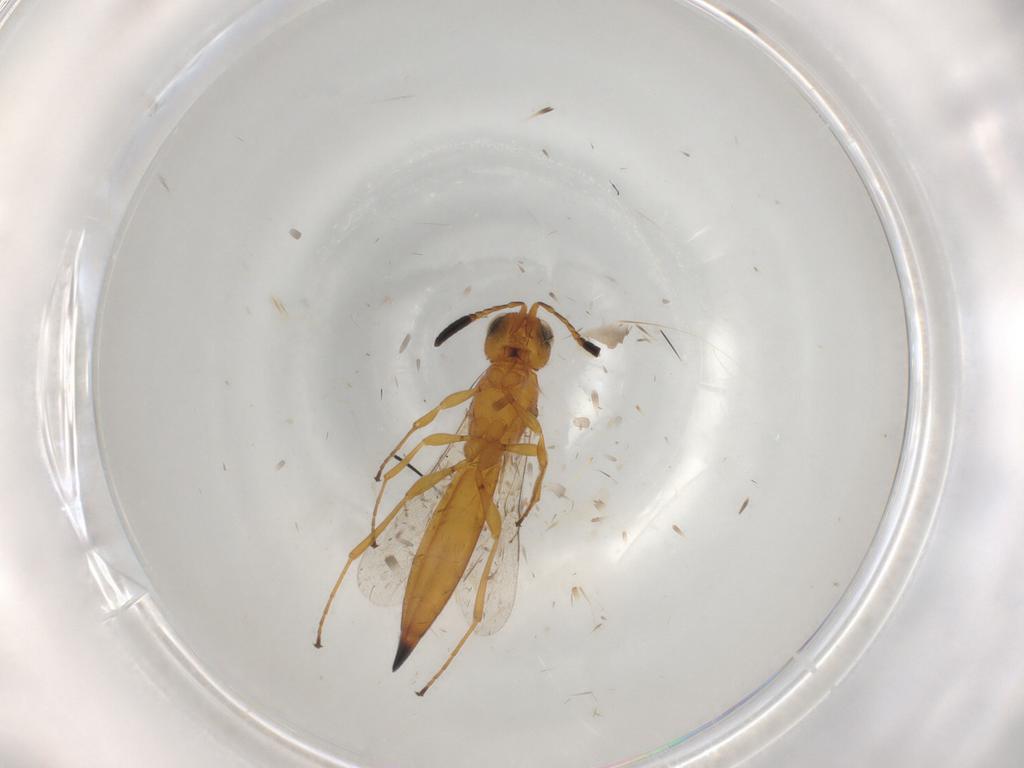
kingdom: Animalia
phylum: Arthropoda
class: Insecta
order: Hymenoptera
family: Scelionidae
